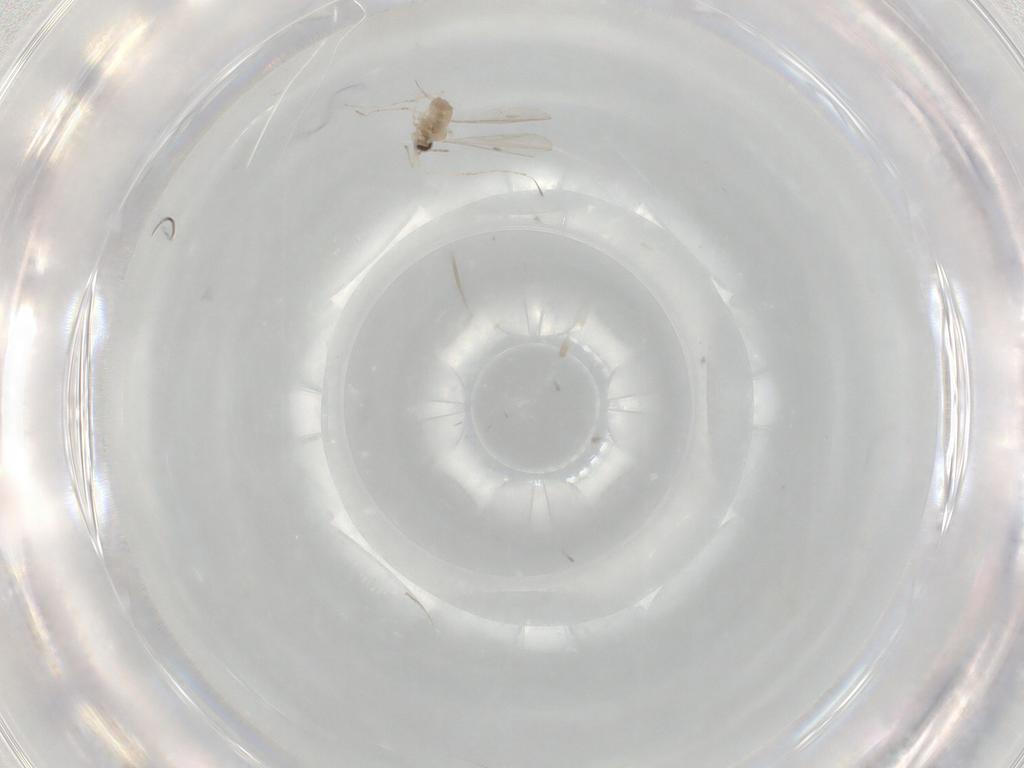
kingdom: Animalia
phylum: Arthropoda
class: Insecta
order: Diptera
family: Cecidomyiidae
